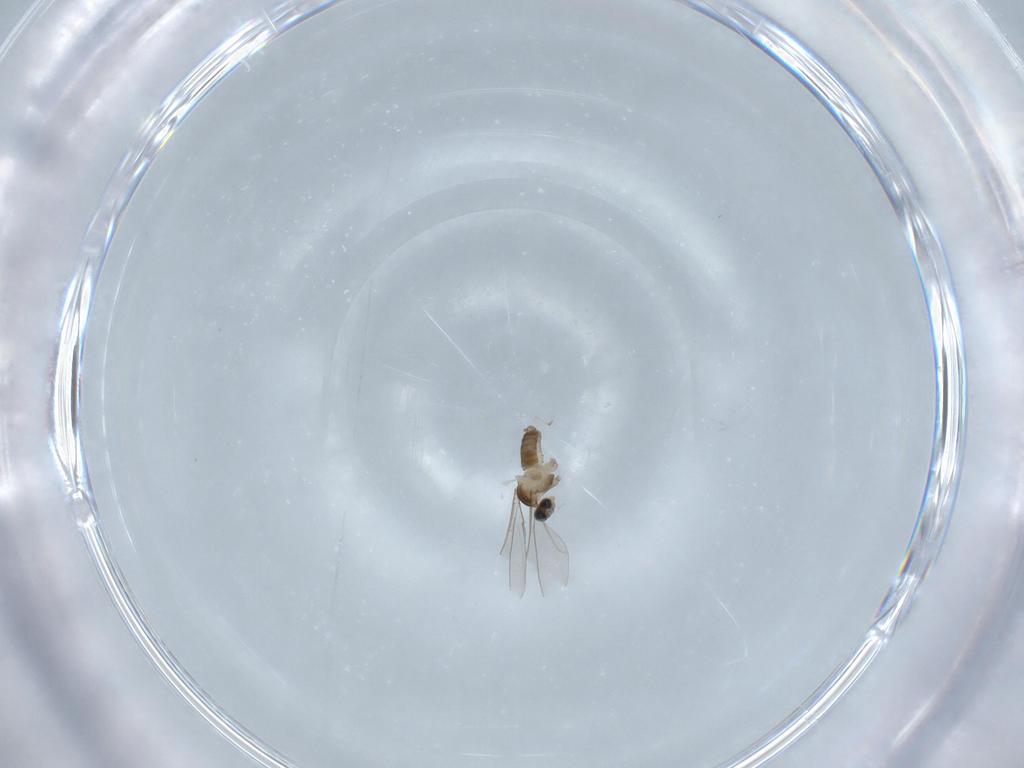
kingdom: Animalia
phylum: Arthropoda
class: Insecta
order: Diptera
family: Cecidomyiidae
